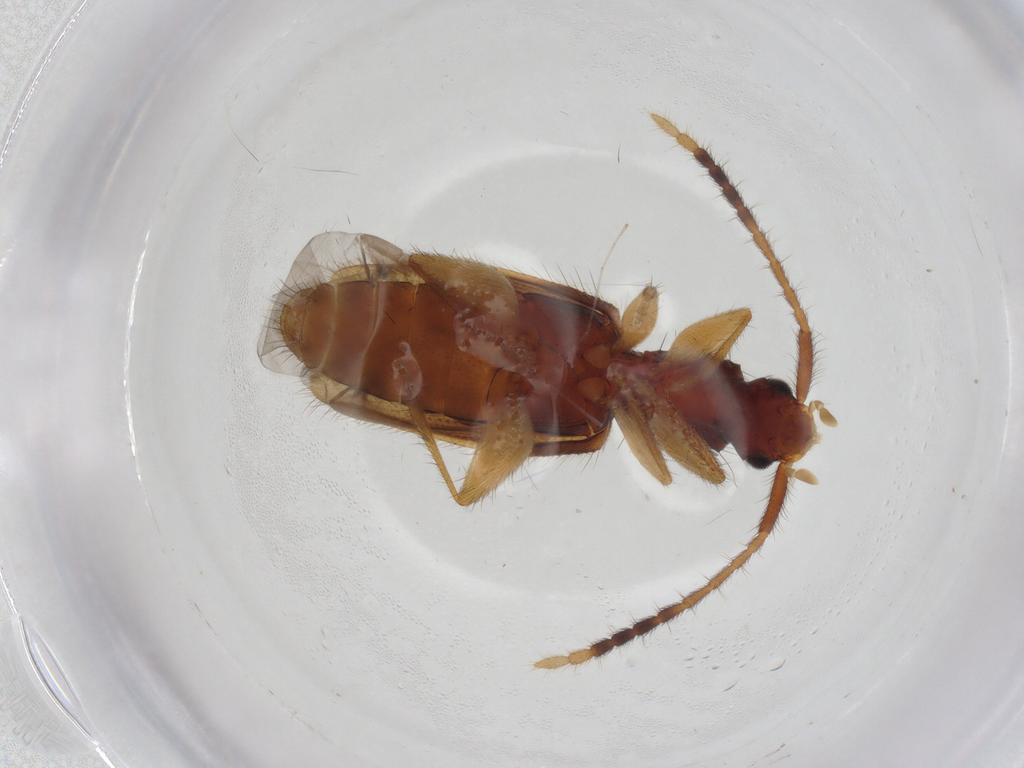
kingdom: Animalia
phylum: Arthropoda
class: Insecta
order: Coleoptera
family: Silvanidae
